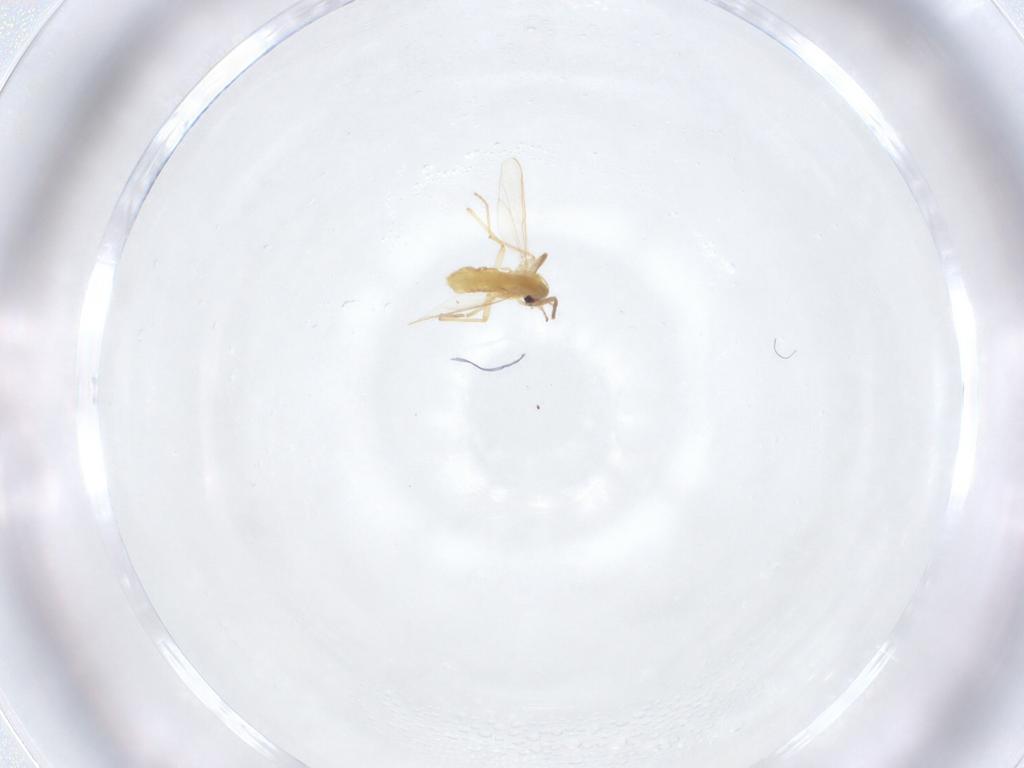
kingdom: Animalia
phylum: Arthropoda
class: Insecta
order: Diptera
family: Chironomidae
